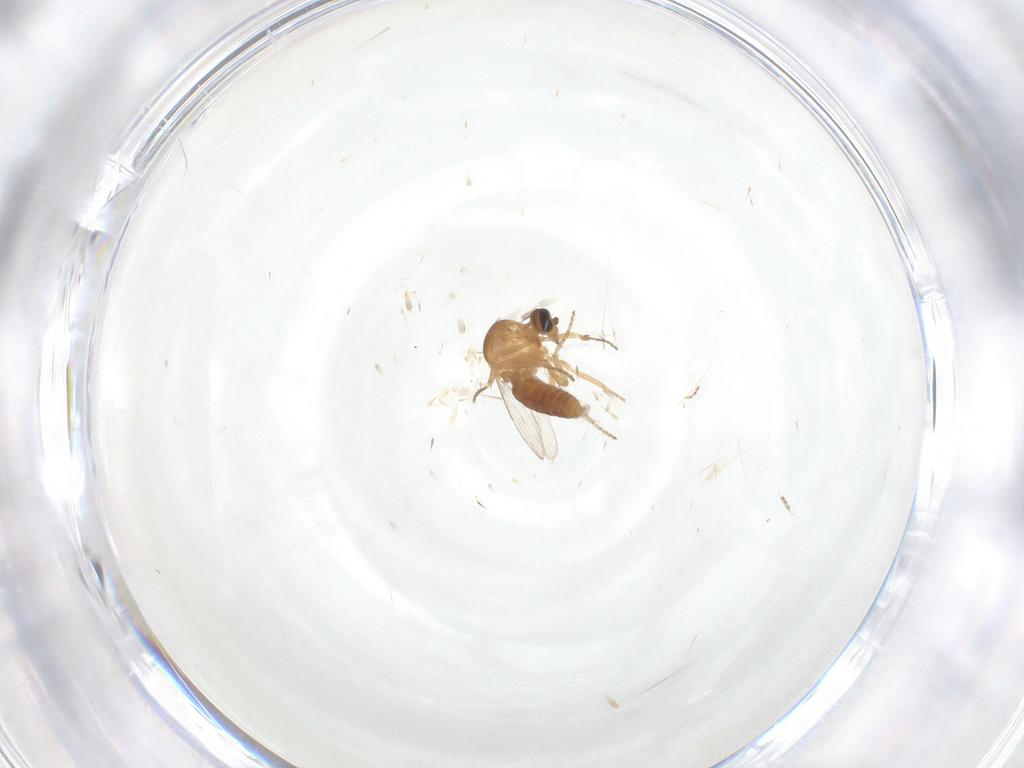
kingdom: Animalia
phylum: Arthropoda
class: Insecta
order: Diptera
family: Ceratopogonidae
